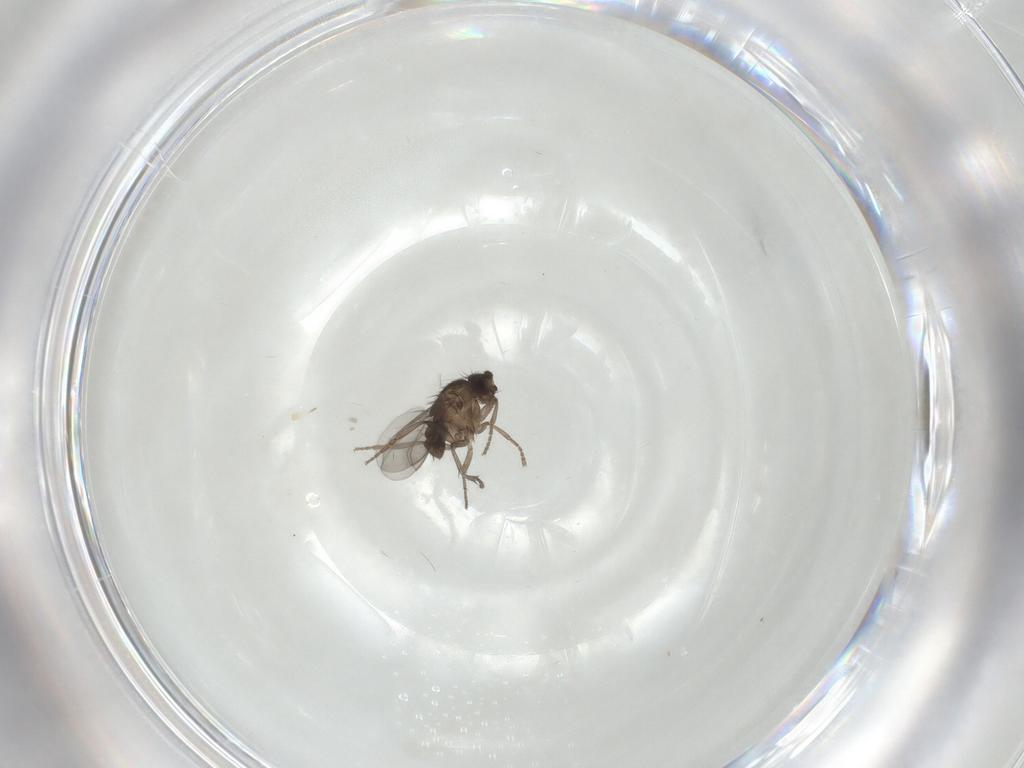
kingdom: Animalia
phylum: Arthropoda
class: Insecta
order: Diptera
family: Sphaeroceridae
